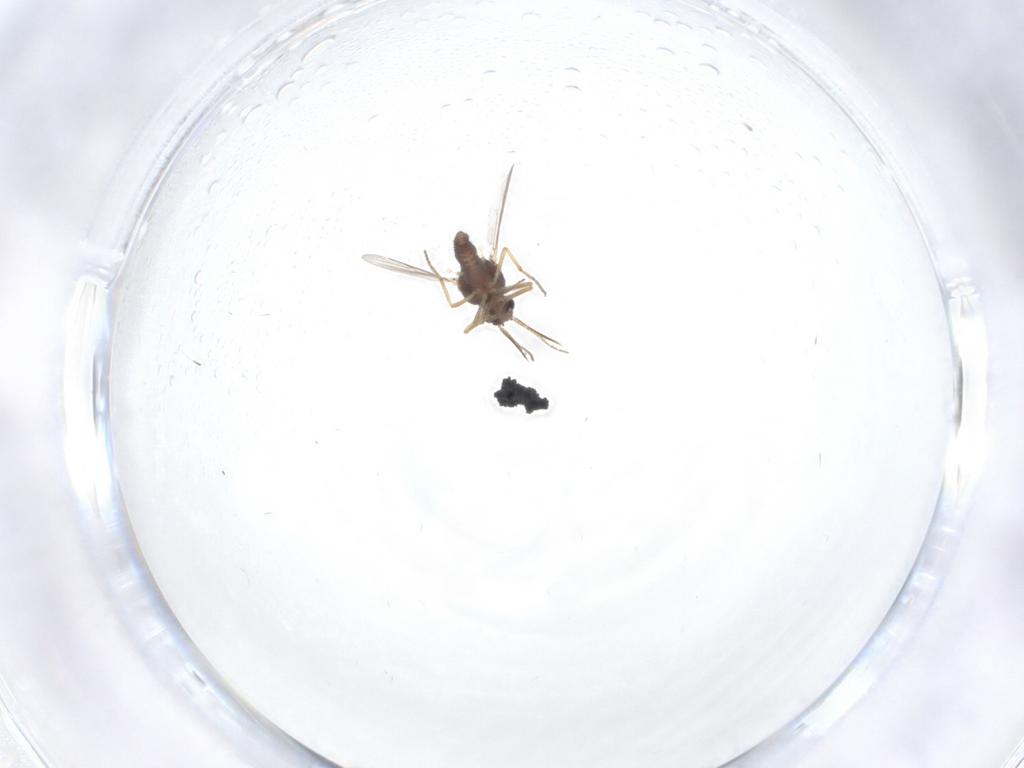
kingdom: Animalia
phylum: Arthropoda
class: Insecta
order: Diptera
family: Ceratopogonidae
